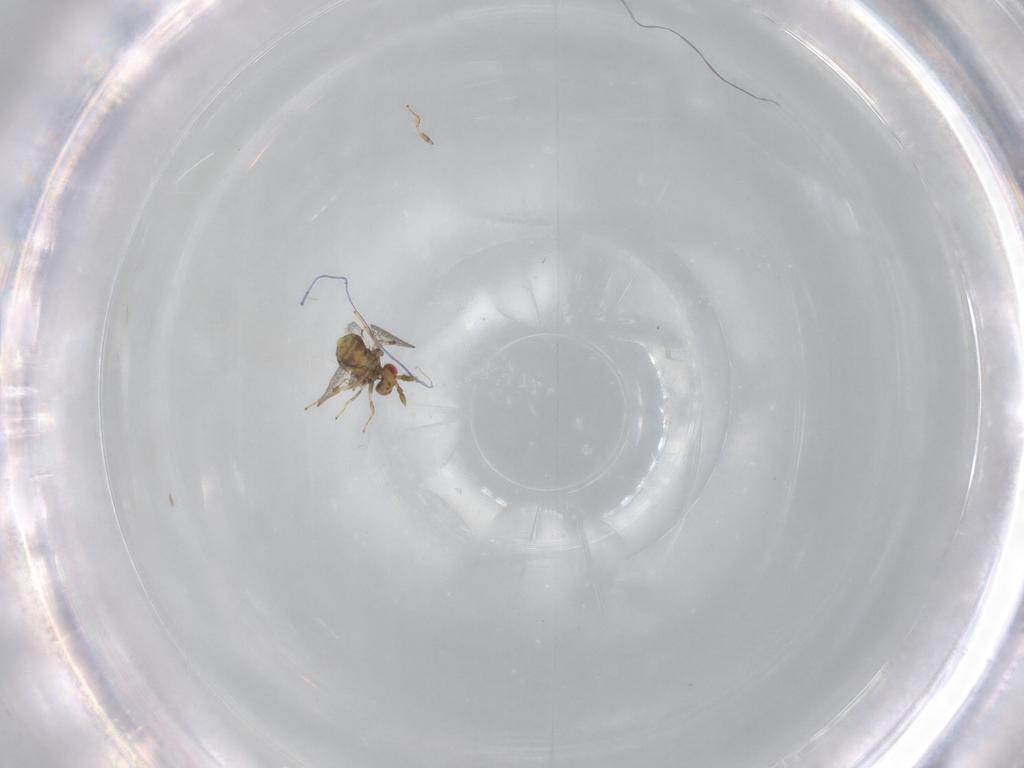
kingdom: Animalia
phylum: Arthropoda
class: Insecta
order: Hymenoptera
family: Trichogrammatidae
